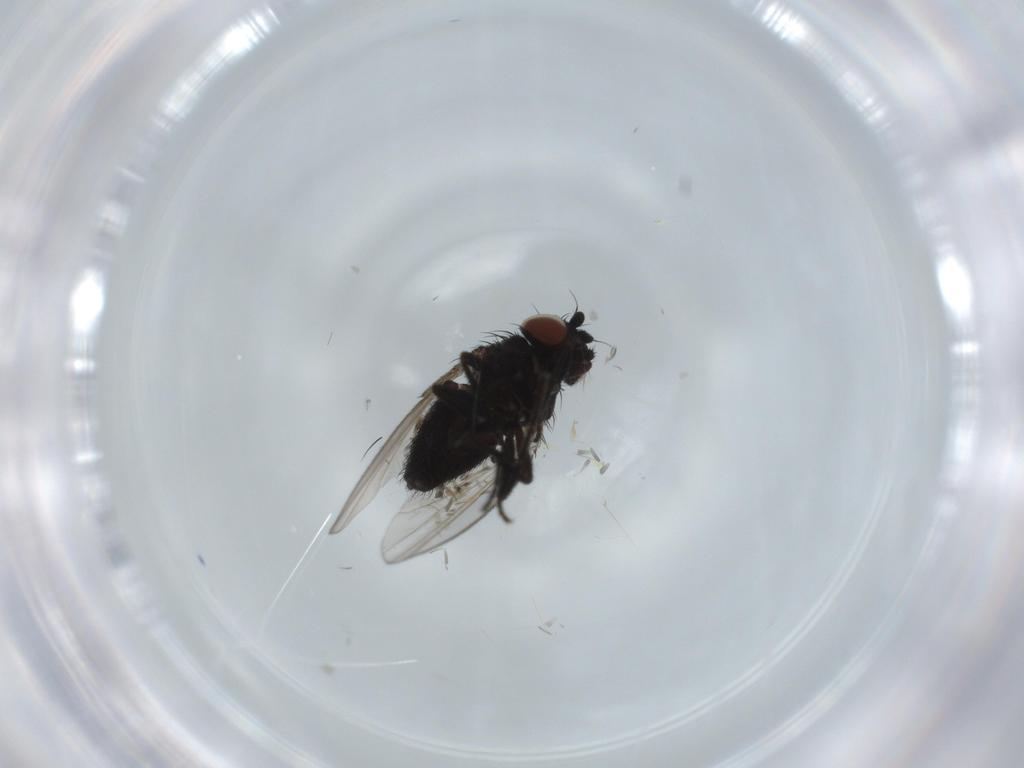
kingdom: Animalia
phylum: Arthropoda
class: Insecta
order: Diptera
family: Milichiidae
